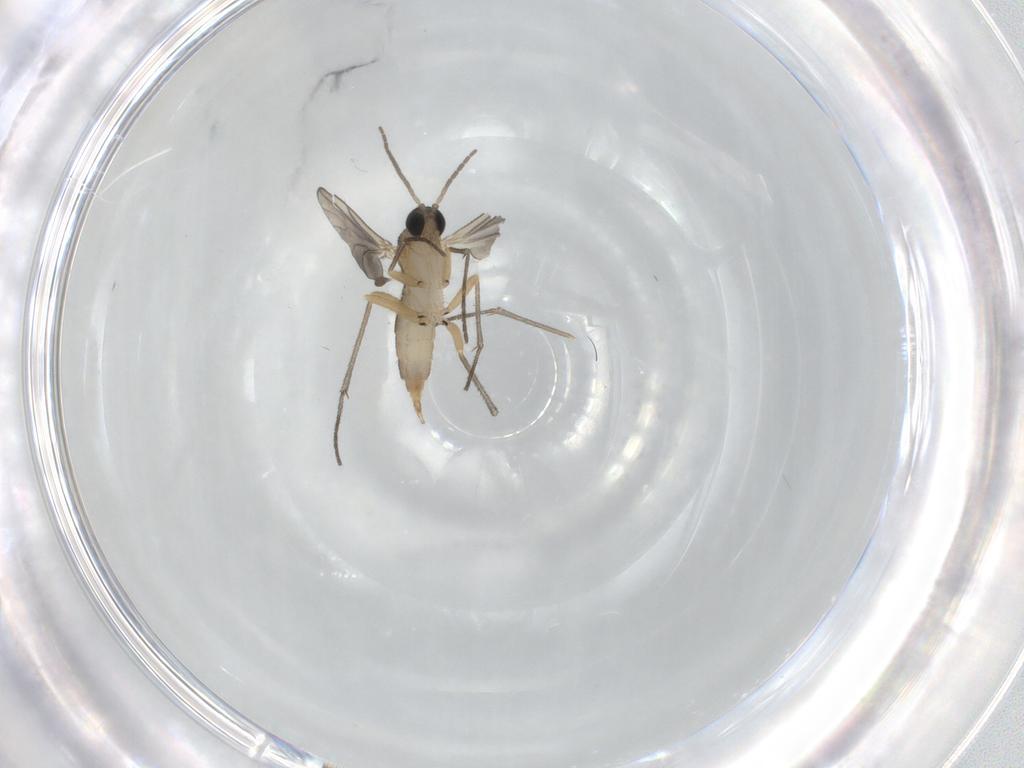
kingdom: Animalia
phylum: Arthropoda
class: Insecta
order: Diptera
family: Sciaridae
